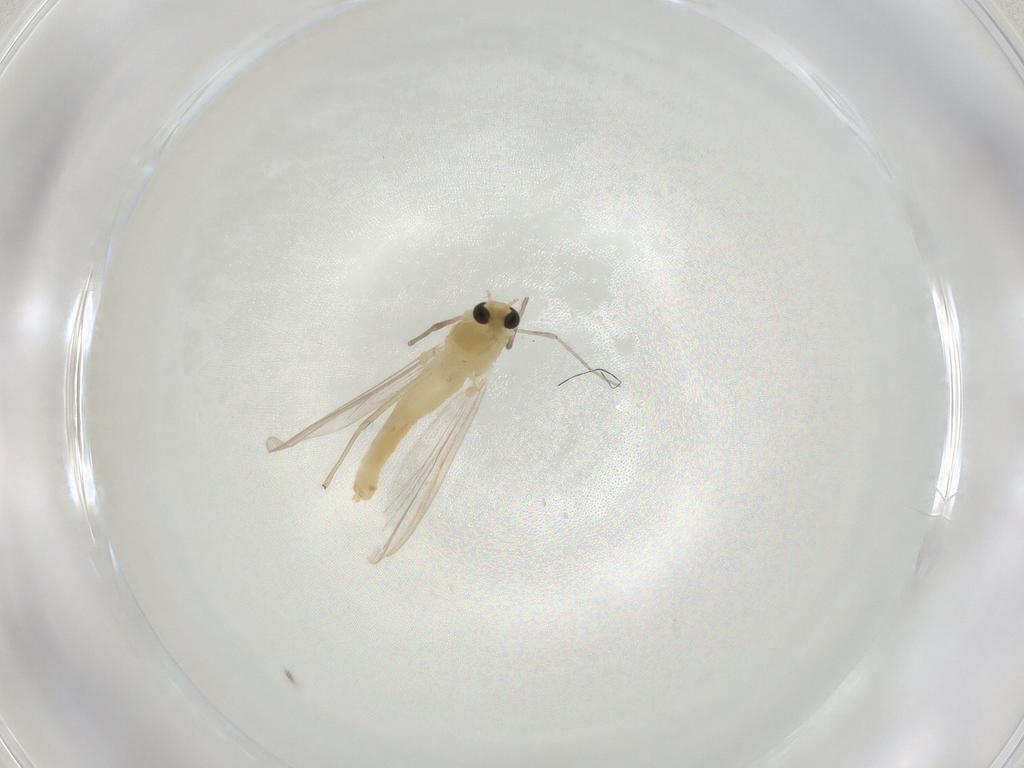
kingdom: Animalia
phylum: Arthropoda
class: Insecta
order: Diptera
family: Chironomidae
